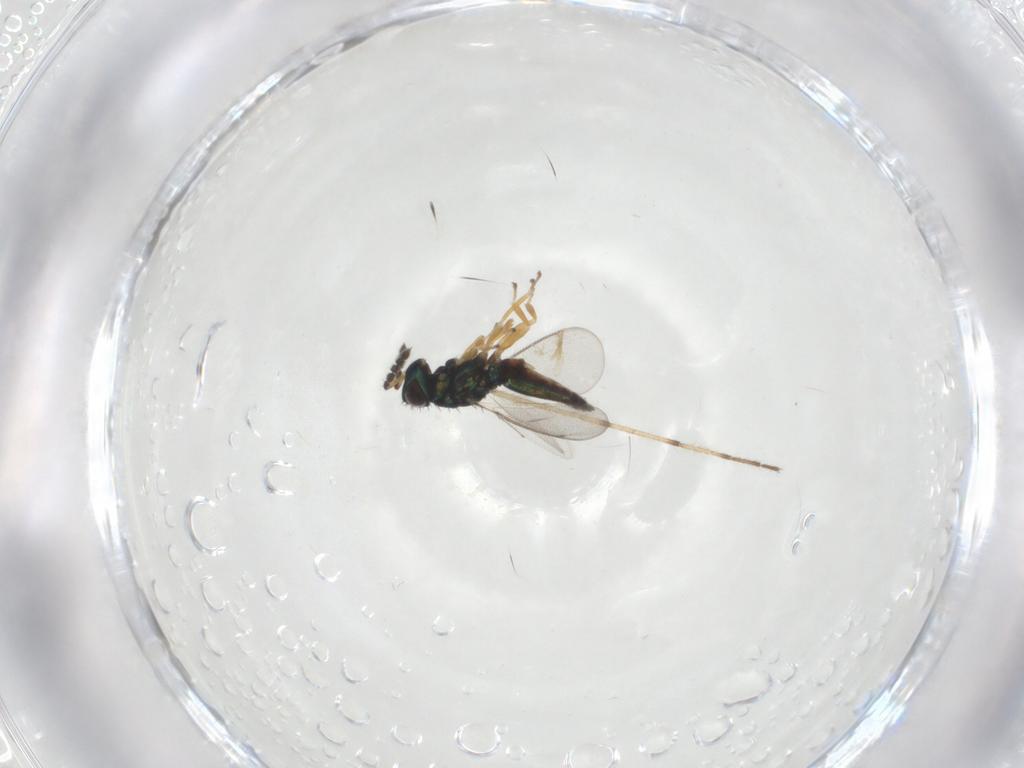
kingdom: Animalia
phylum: Arthropoda
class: Insecta
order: Hymenoptera
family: Eulophidae
